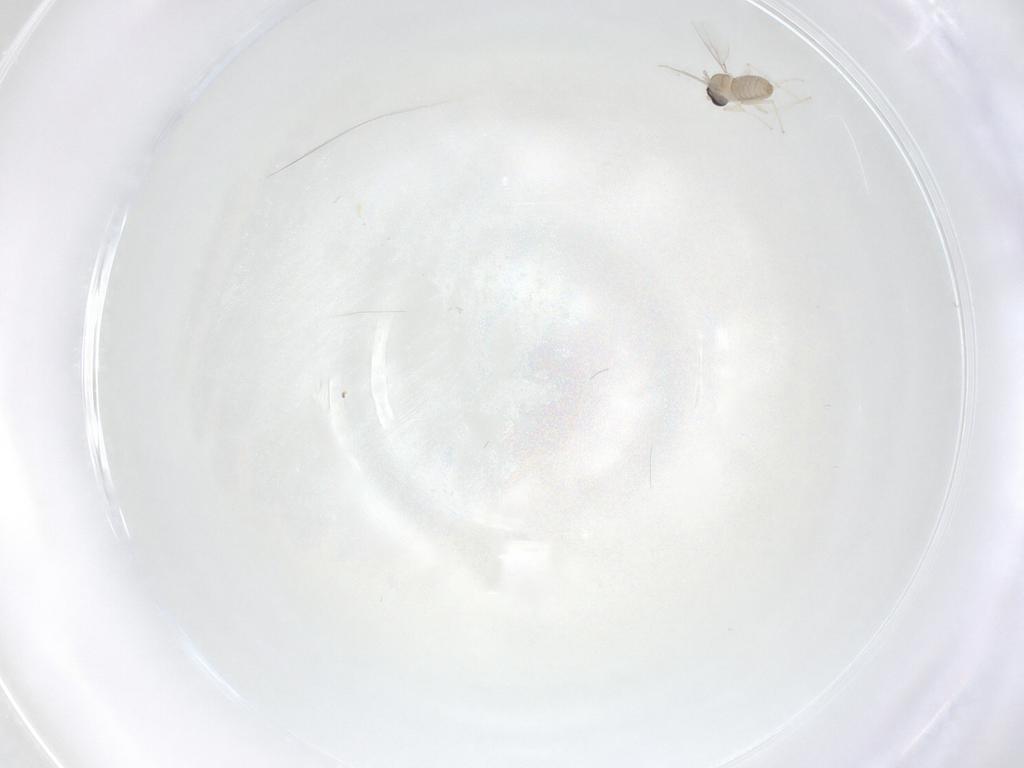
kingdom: Animalia
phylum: Arthropoda
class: Insecta
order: Diptera
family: Cecidomyiidae
